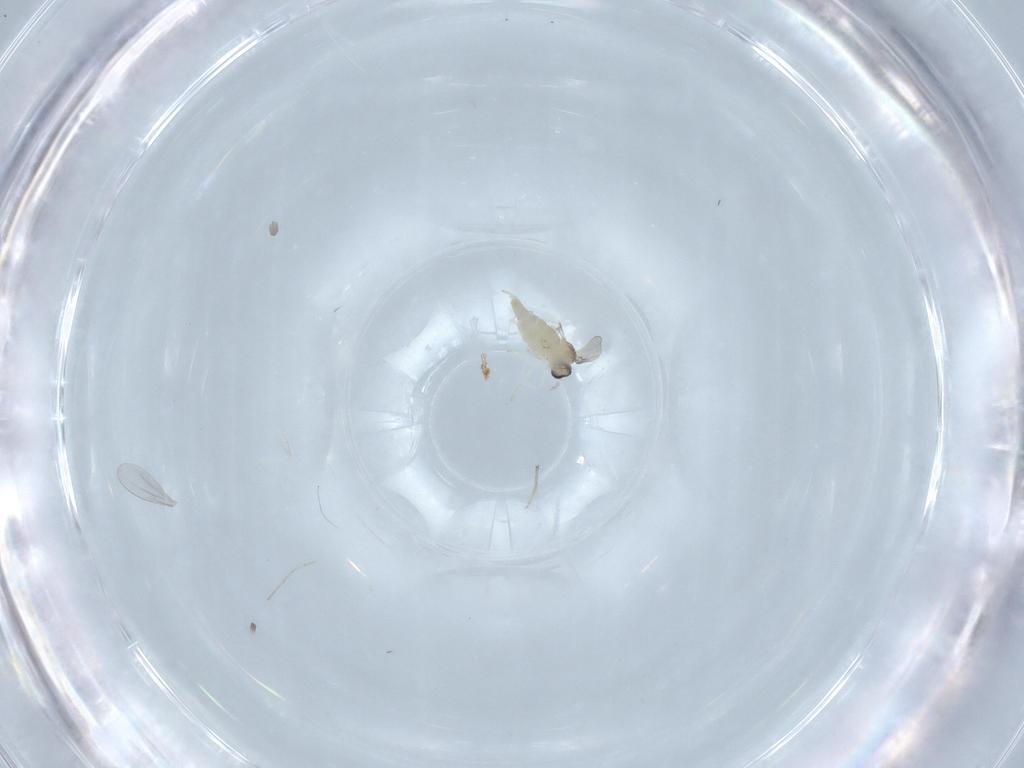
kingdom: Animalia
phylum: Arthropoda
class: Insecta
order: Diptera
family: Cecidomyiidae
